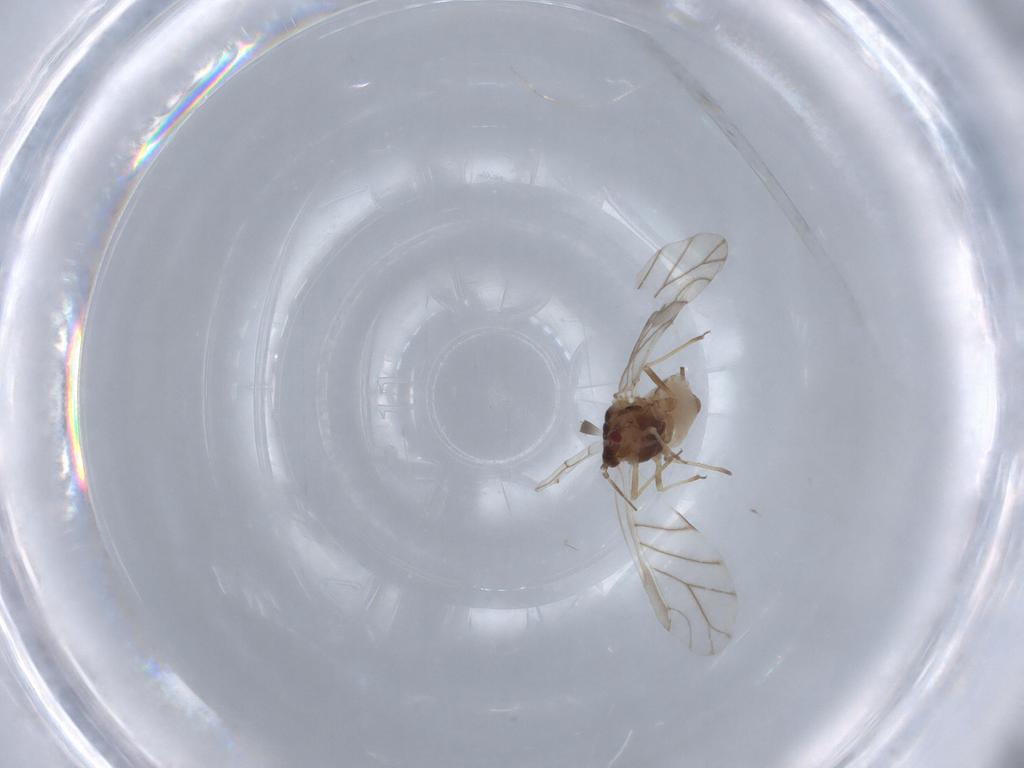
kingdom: Animalia
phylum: Arthropoda
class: Insecta
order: Hemiptera
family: Aphididae
